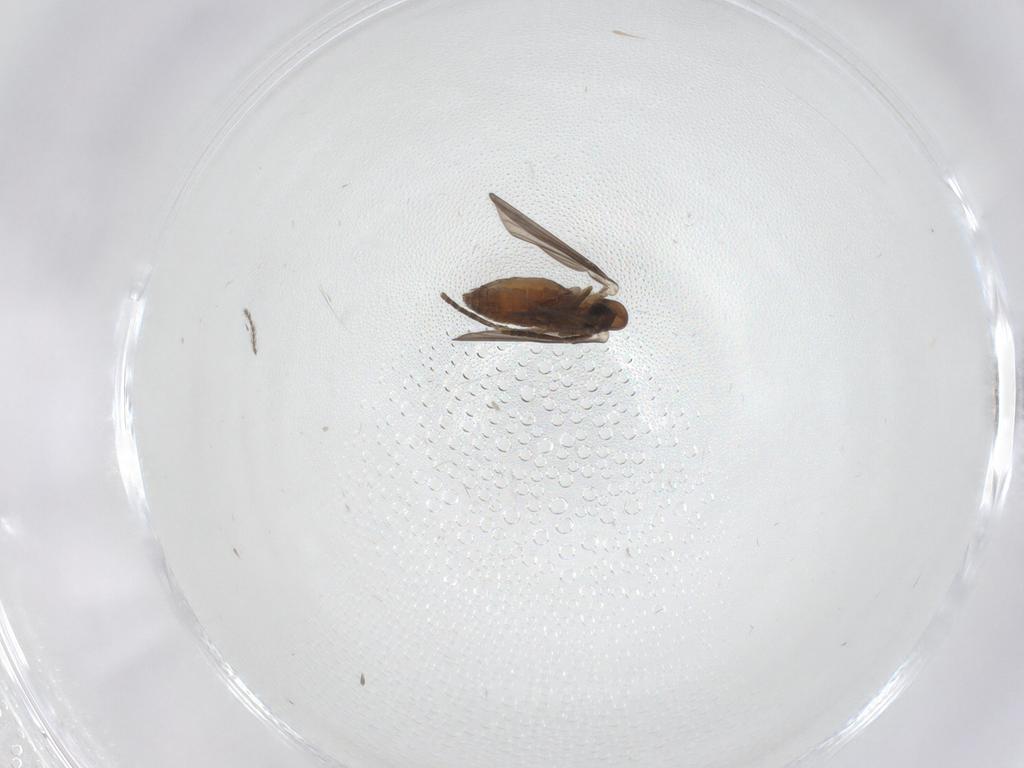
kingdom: Animalia
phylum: Arthropoda
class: Insecta
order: Diptera
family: Psychodidae
